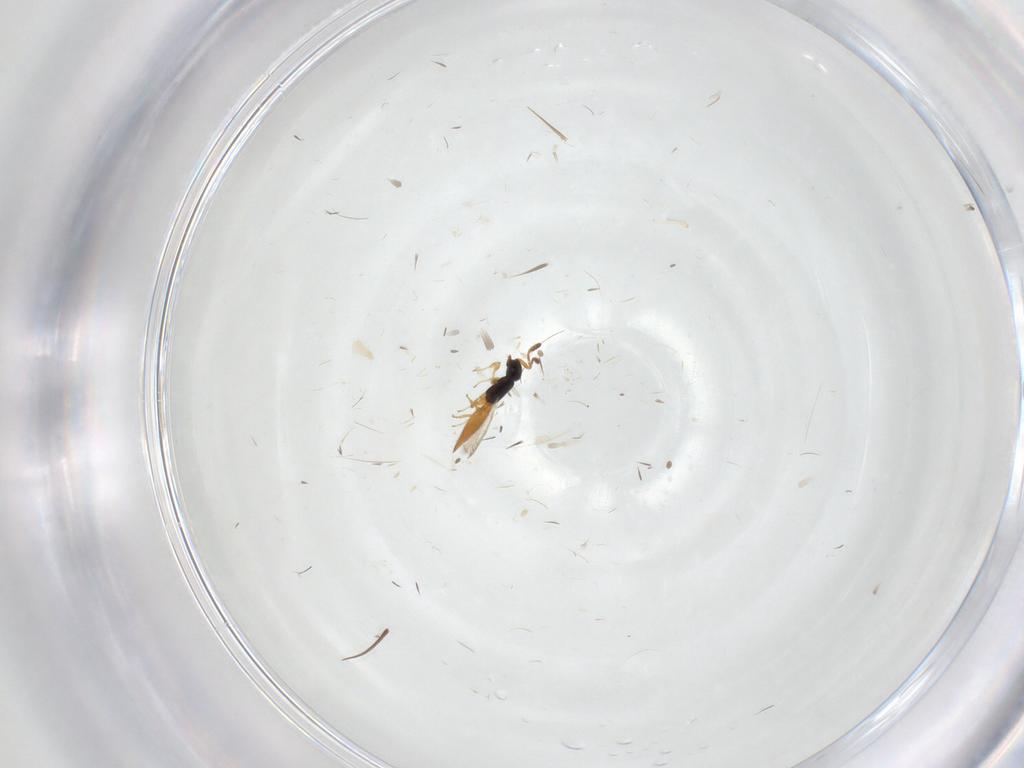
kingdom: Animalia
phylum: Arthropoda
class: Insecta
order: Hymenoptera
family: Scelionidae
